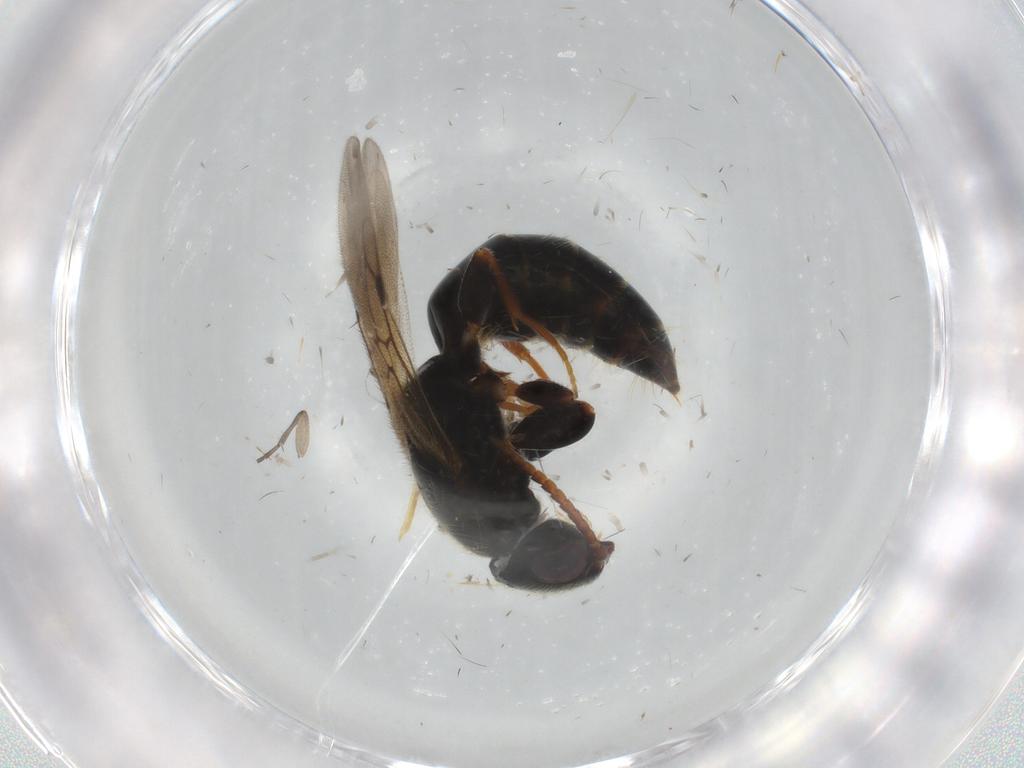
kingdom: Animalia
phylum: Arthropoda
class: Insecta
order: Hymenoptera
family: Bethylidae
